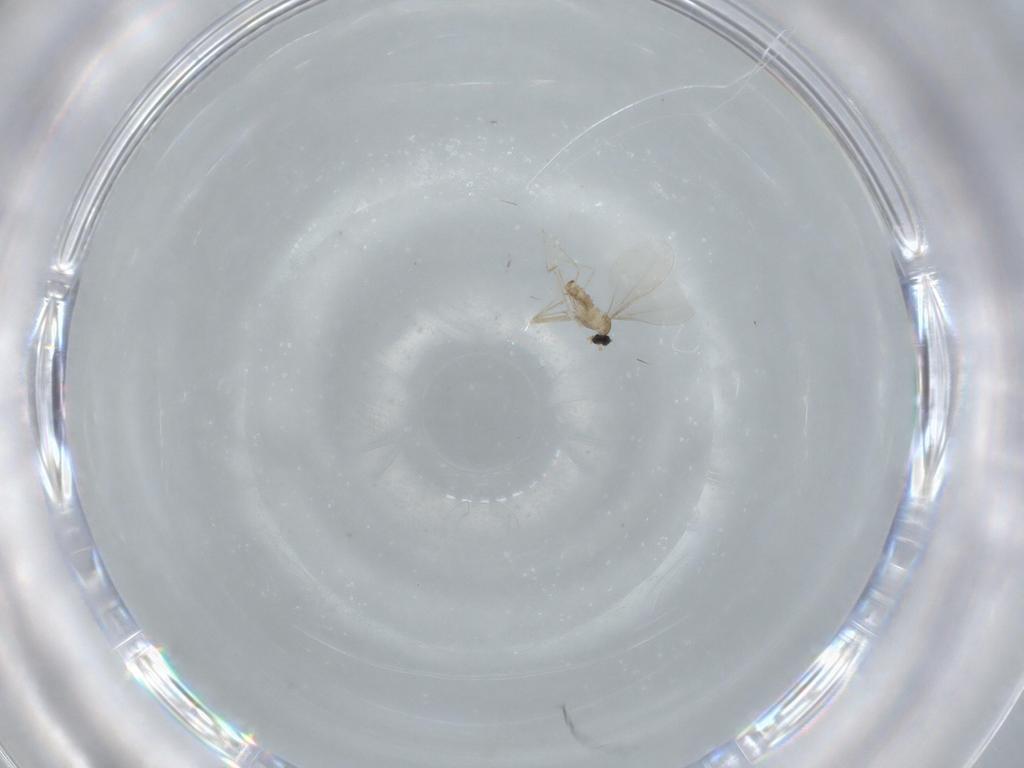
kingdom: Animalia
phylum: Arthropoda
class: Insecta
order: Diptera
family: Cecidomyiidae
